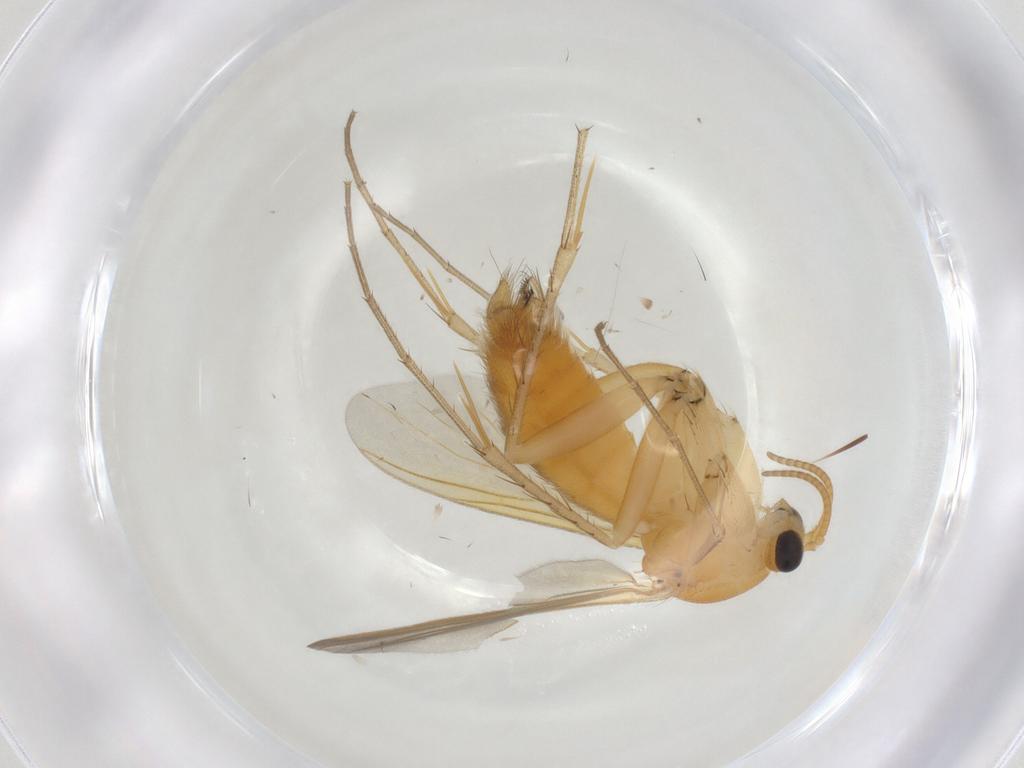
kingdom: Animalia
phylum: Arthropoda
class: Insecta
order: Diptera
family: Mycetophilidae
